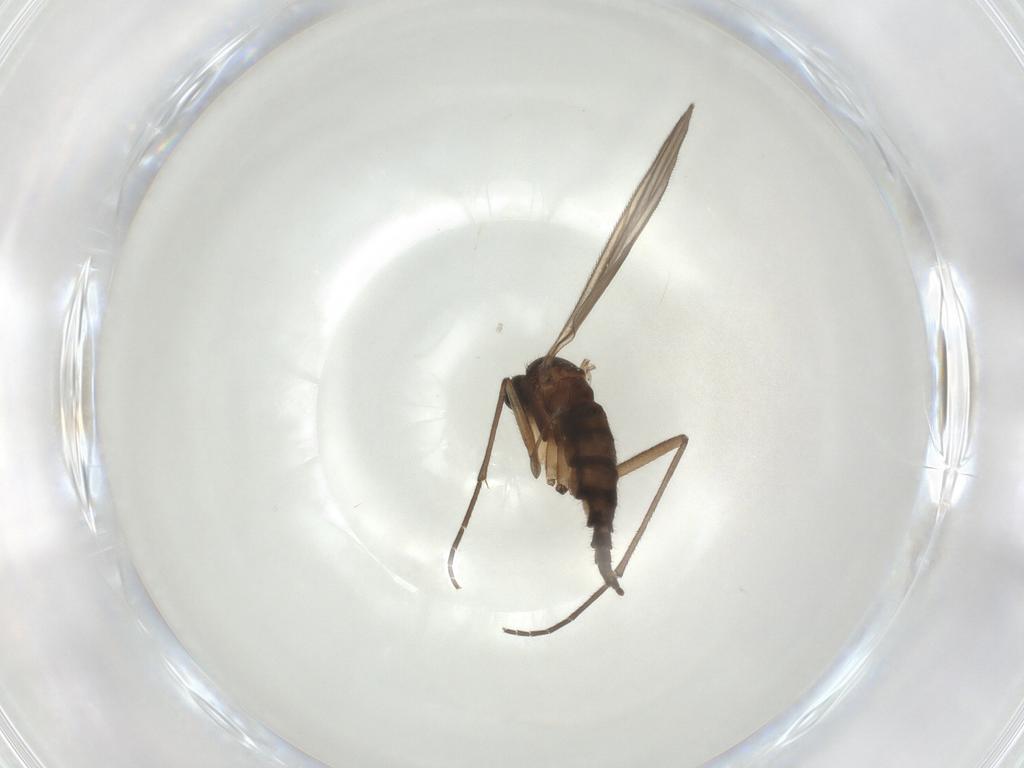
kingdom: Animalia
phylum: Arthropoda
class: Insecta
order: Diptera
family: Sciaridae
